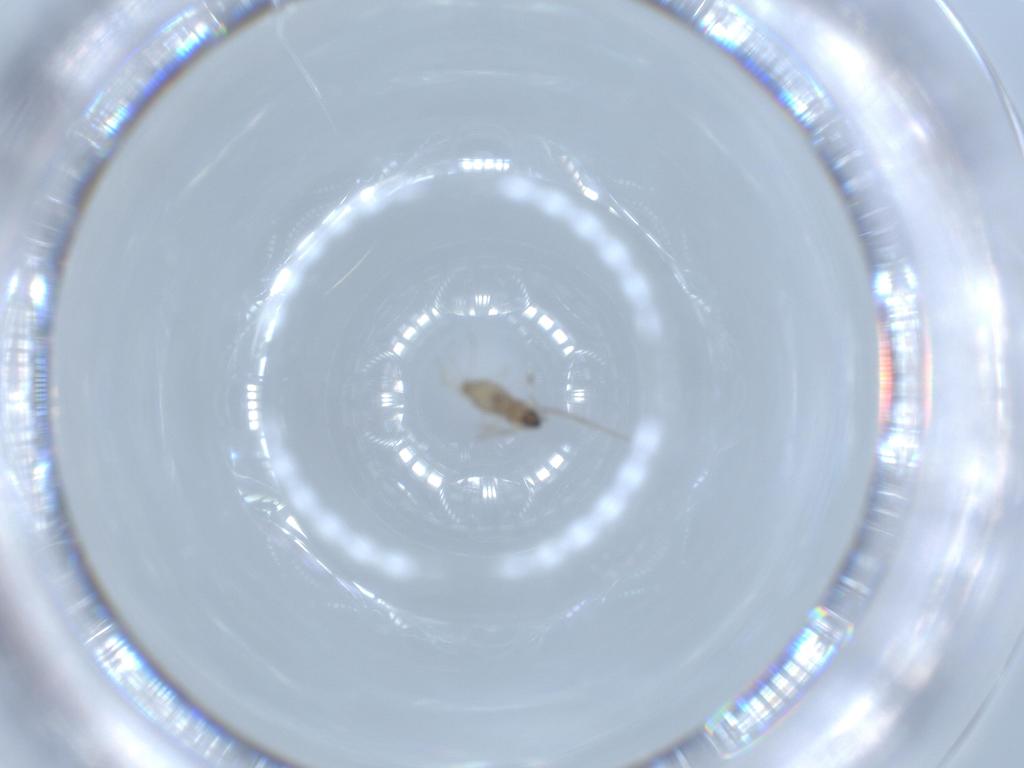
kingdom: Animalia
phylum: Arthropoda
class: Insecta
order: Diptera
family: Cecidomyiidae
